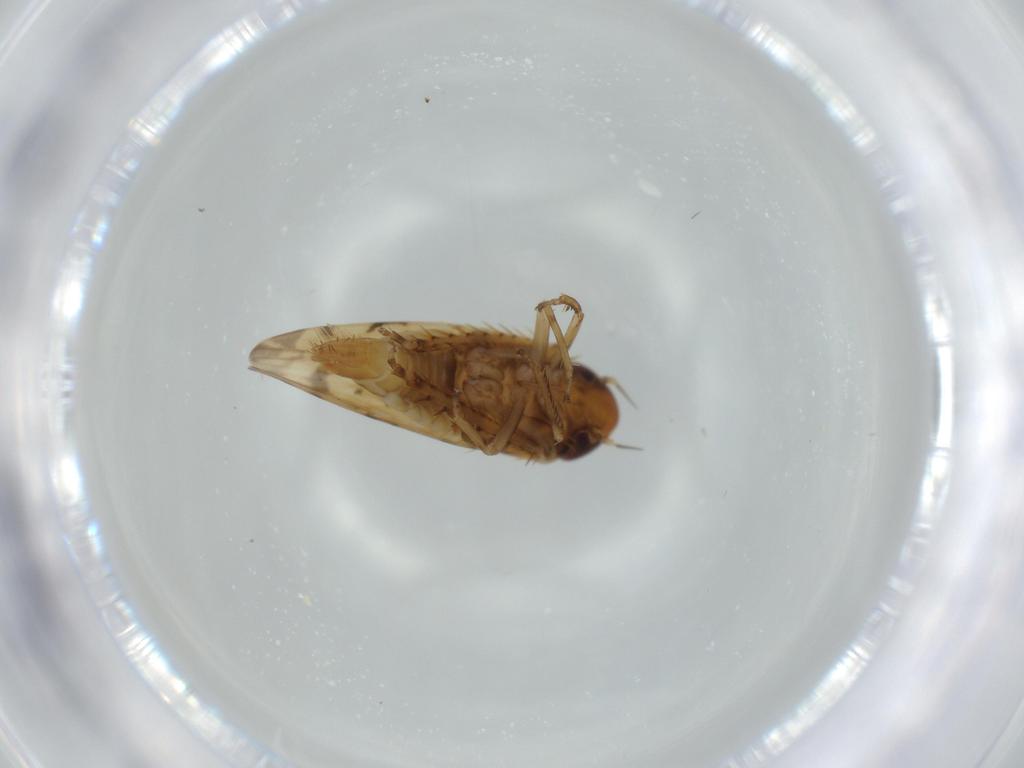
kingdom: Animalia
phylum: Arthropoda
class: Insecta
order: Hemiptera
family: Cicadellidae
